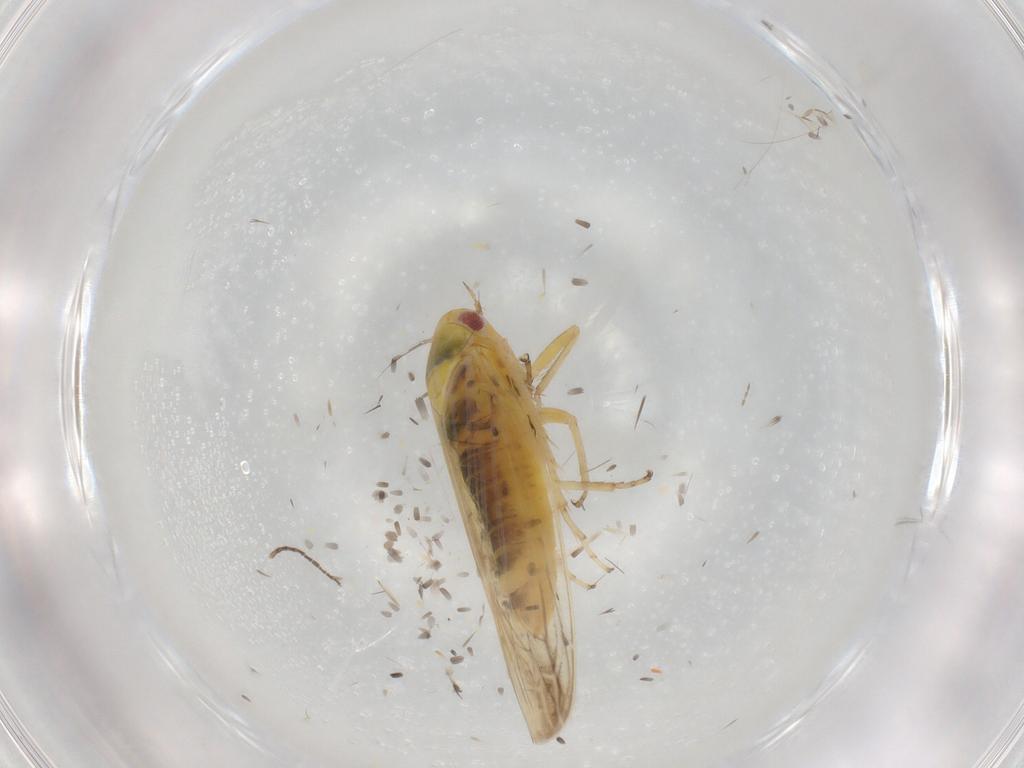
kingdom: Animalia
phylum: Arthropoda
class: Insecta
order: Hemiptera
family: Cicadellidae
